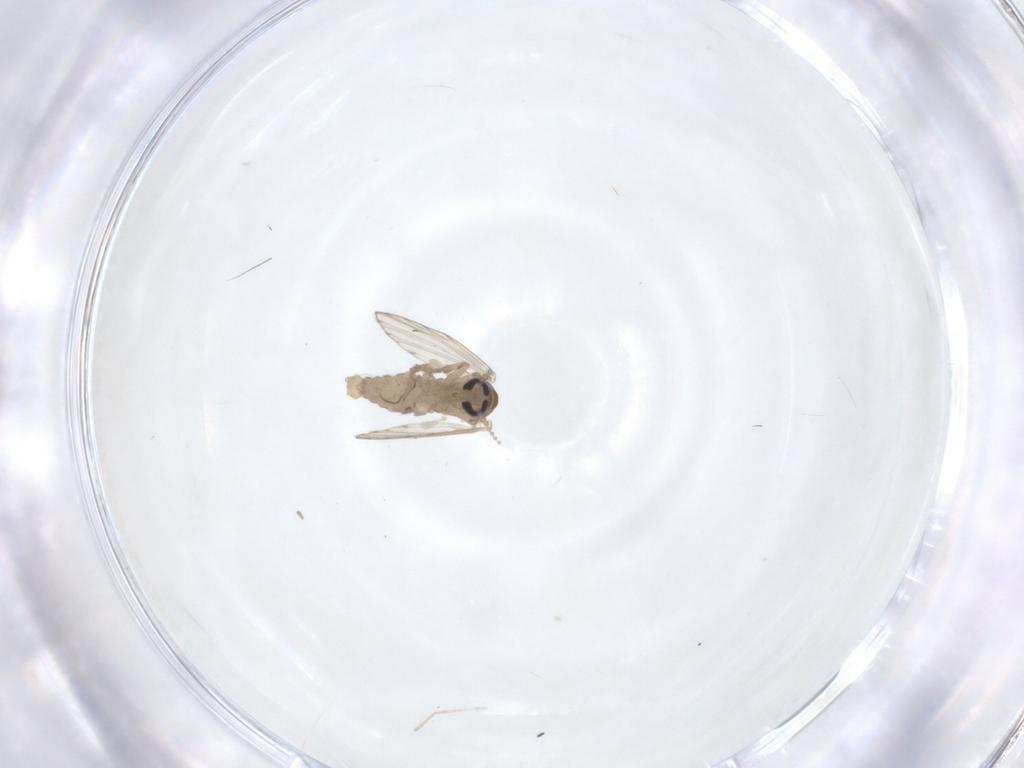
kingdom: Animalia
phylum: Arthropoda
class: Insecta
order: Diptera
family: Psychodidae
